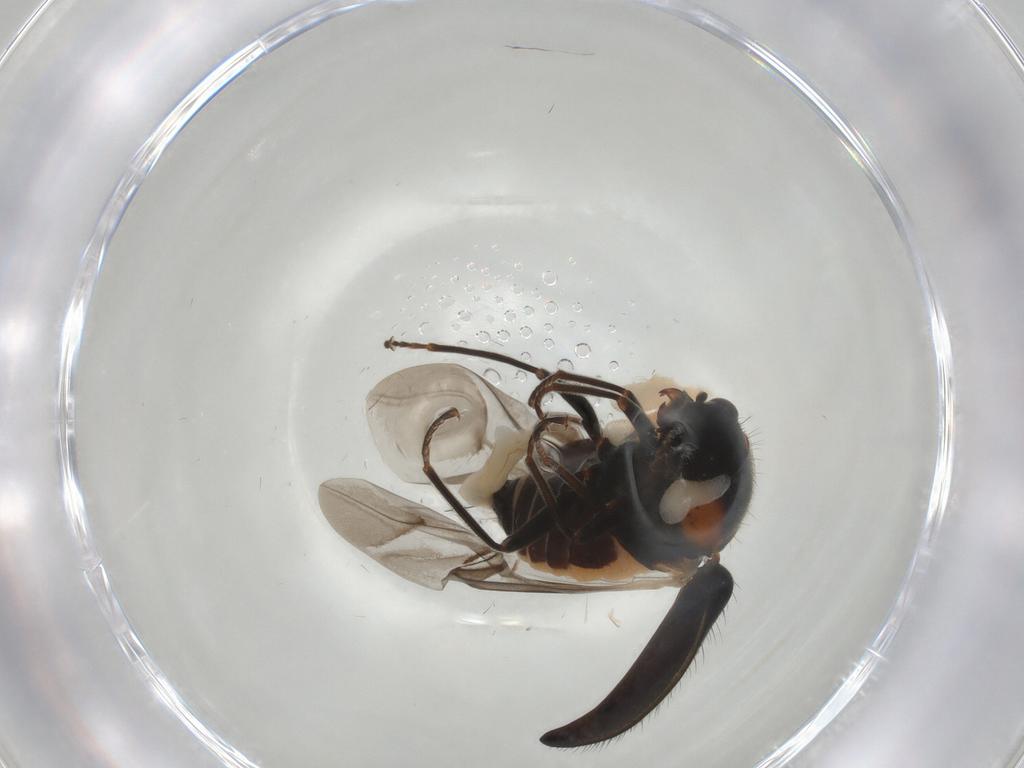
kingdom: Animalia
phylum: Arthropoda
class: Insecta
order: Coleoptera
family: Melyridae
